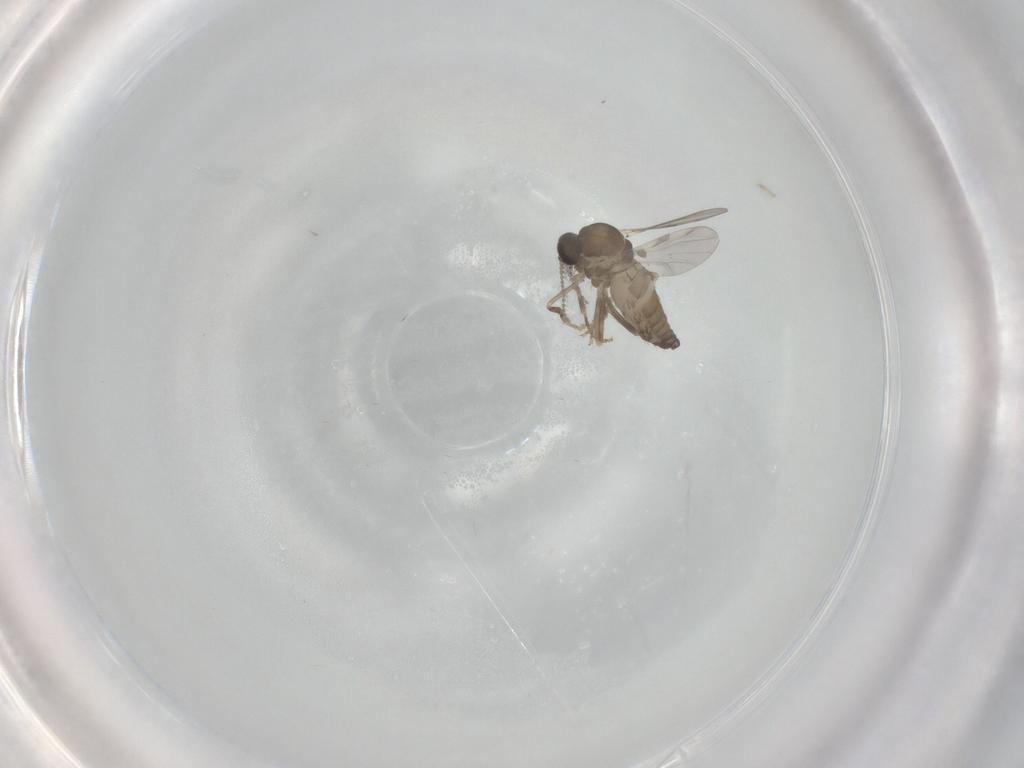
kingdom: Animalia
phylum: Arthropoda
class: Insecta
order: Diptera
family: Ceratopogonidae
